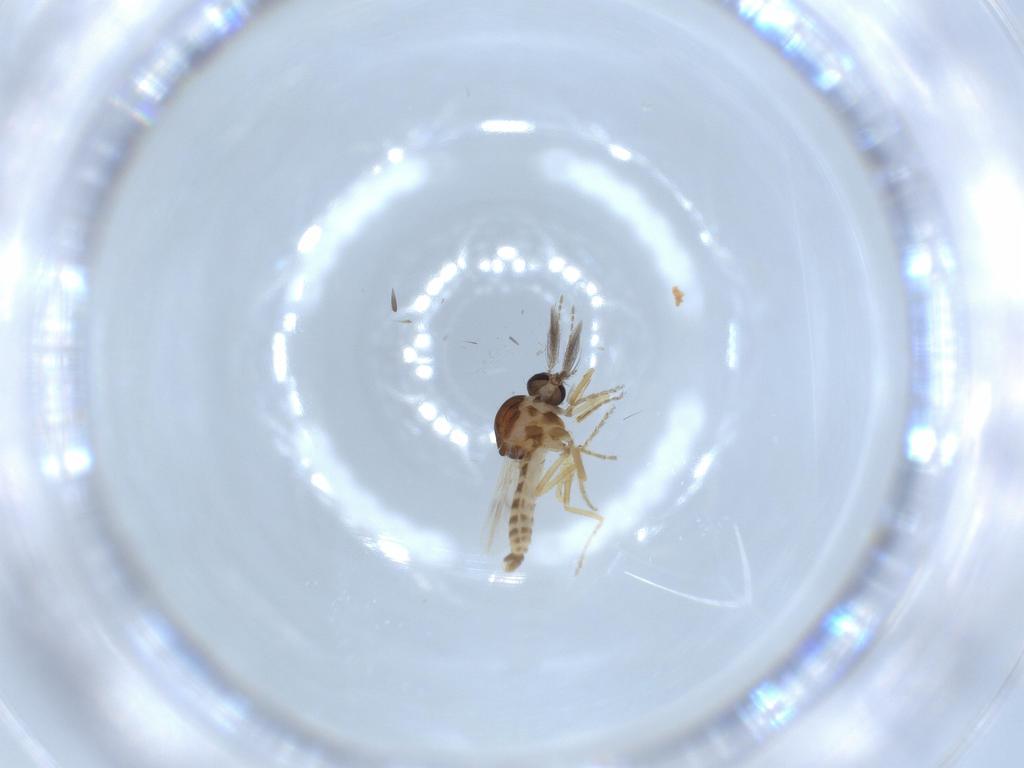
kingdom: Animalia
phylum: Arthropoda
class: Insecta
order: Diptera
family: Ceratopogonidae
